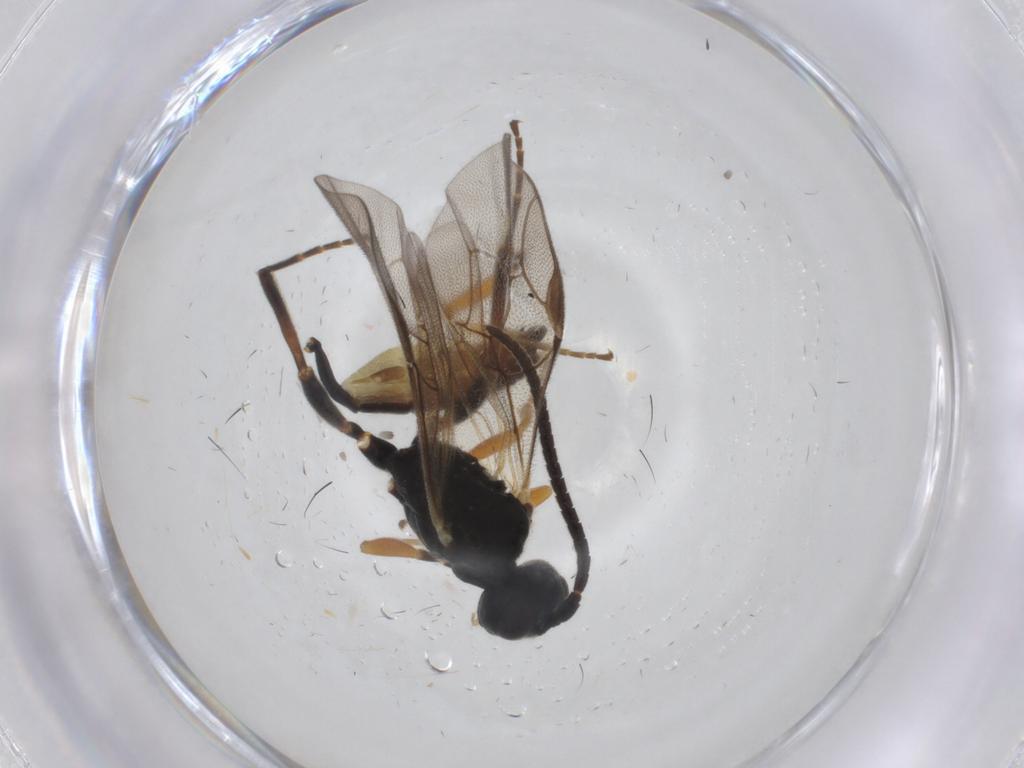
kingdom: Animalia
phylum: Arthropoda
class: Insecta
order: Hymenoptera
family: Ichneumonidae
